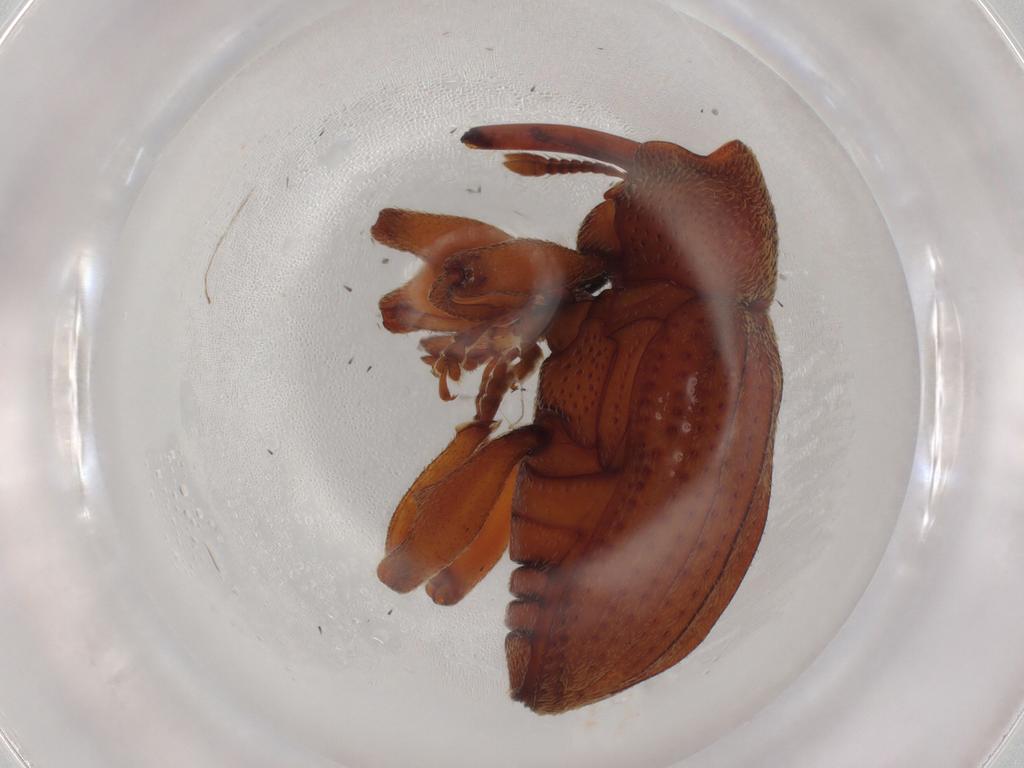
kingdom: Animalia
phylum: Arthropoda
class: Insecta
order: Coleoptera
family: Curculionidae
